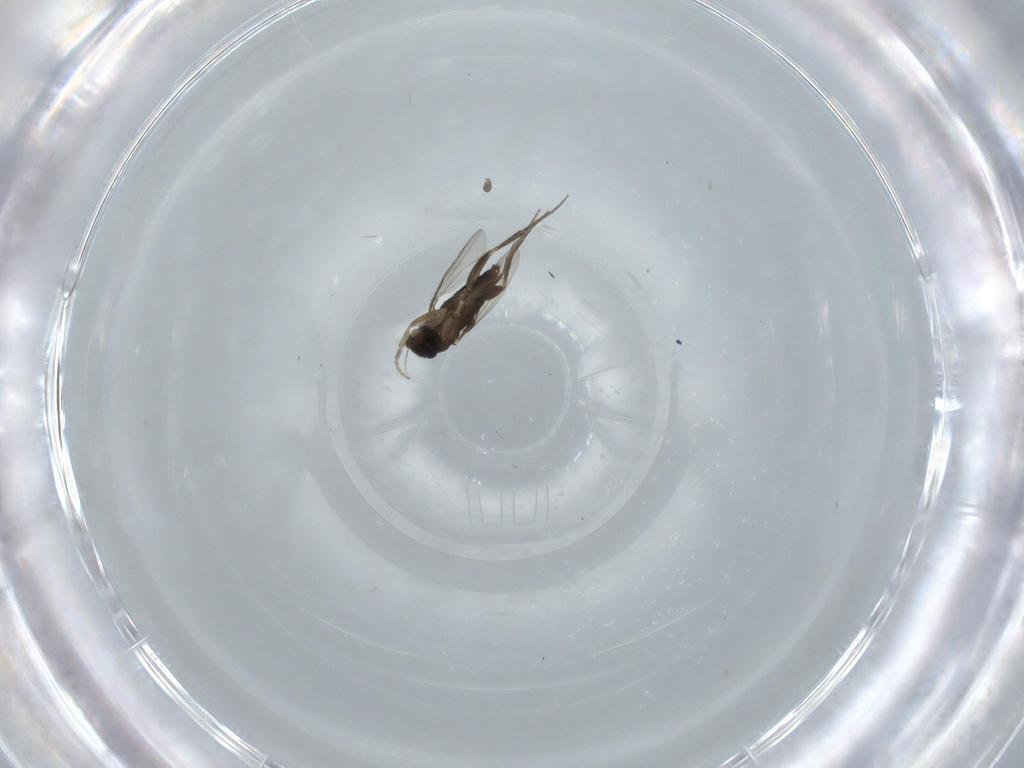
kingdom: Animalia
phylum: Arthropoda
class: Insecta
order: Diptera
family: Phoridae
